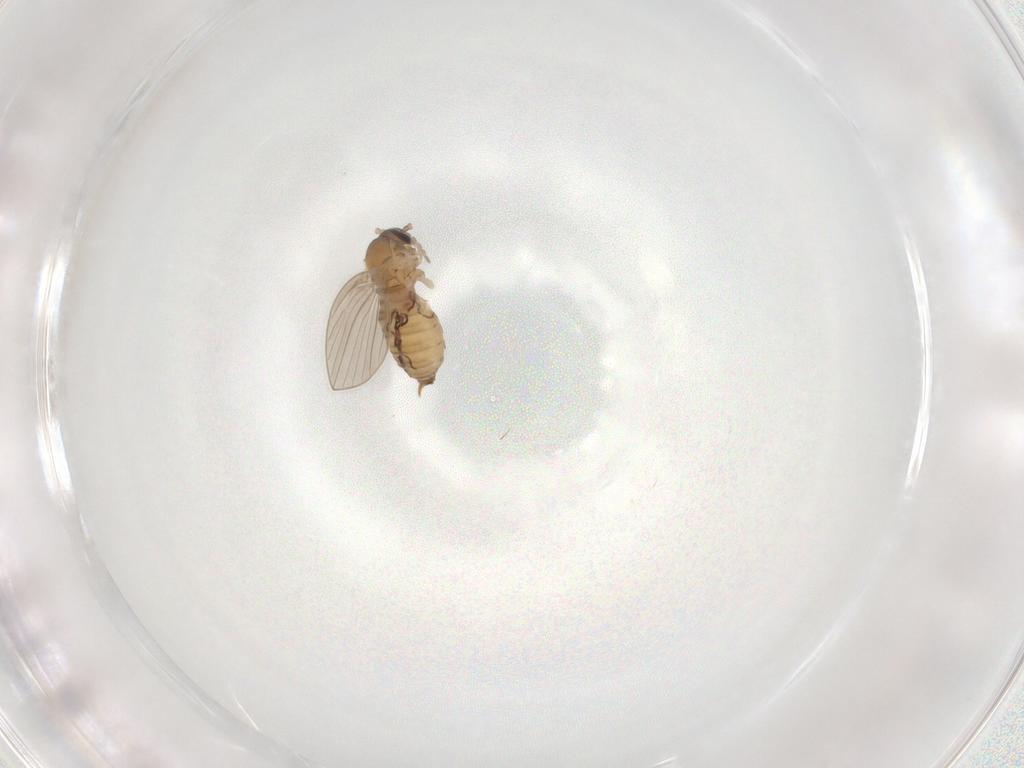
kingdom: Animalia
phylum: Arthropoda
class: Insecta
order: Diptera
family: Psychodidae
